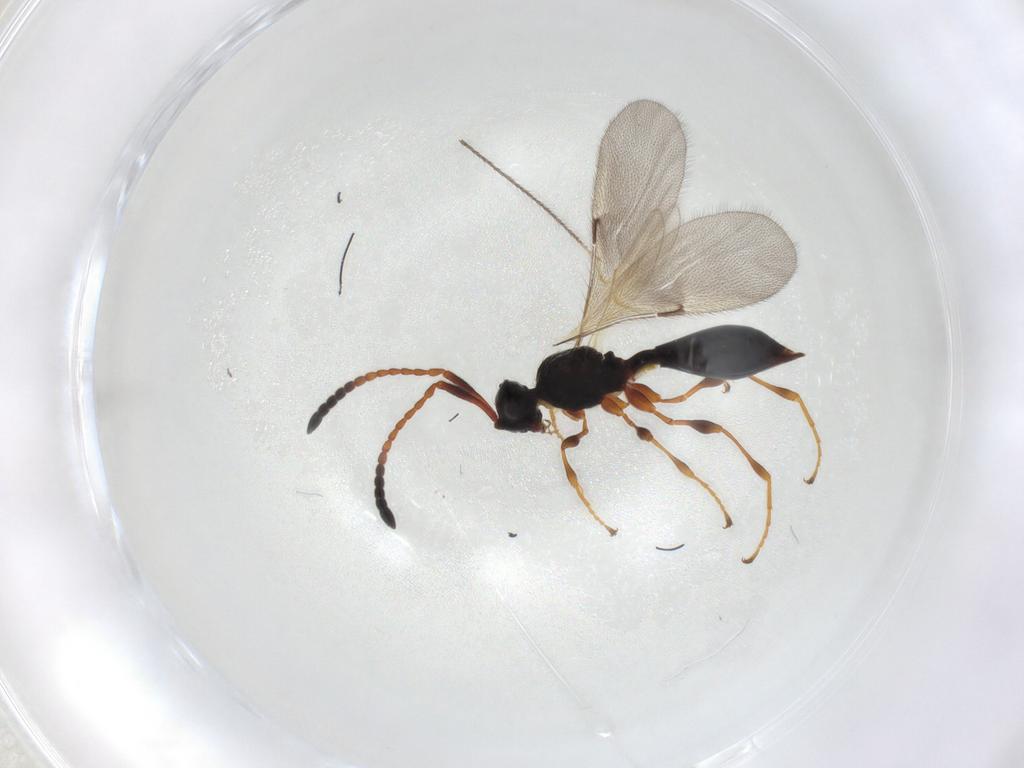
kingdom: Animalia
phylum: Arthropoda
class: Insecta
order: Hymenoptera
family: Diapriidae
